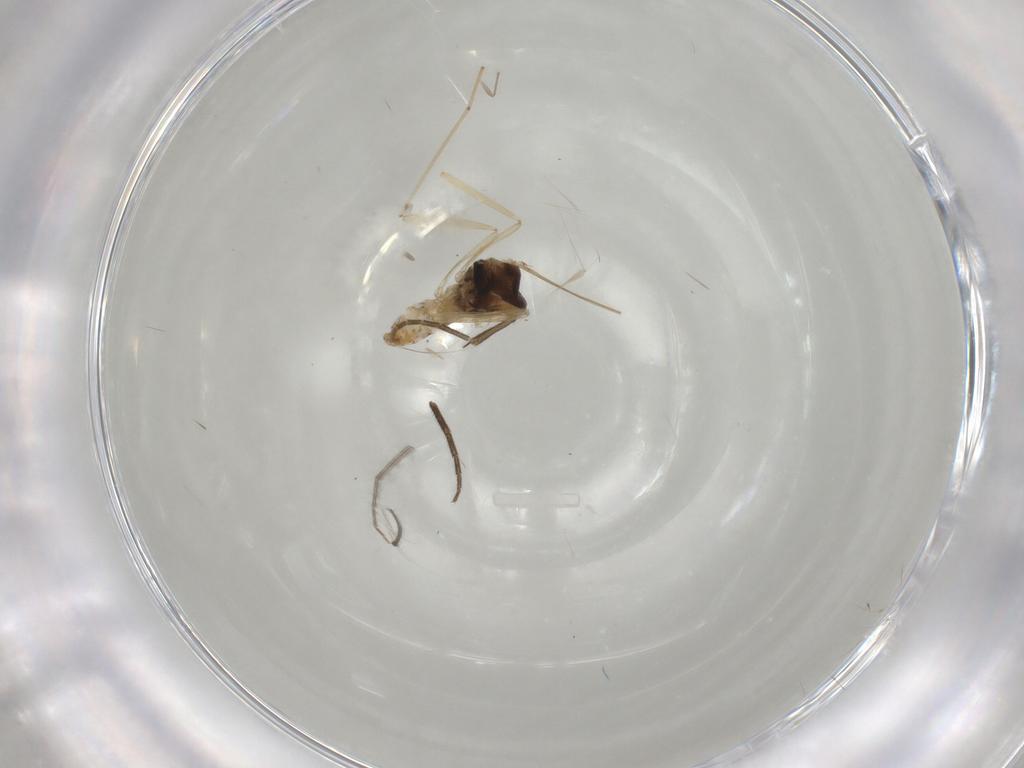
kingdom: Animalia
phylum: Arthropoda
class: Insecta
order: Diptera
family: Cecidomyiidae
